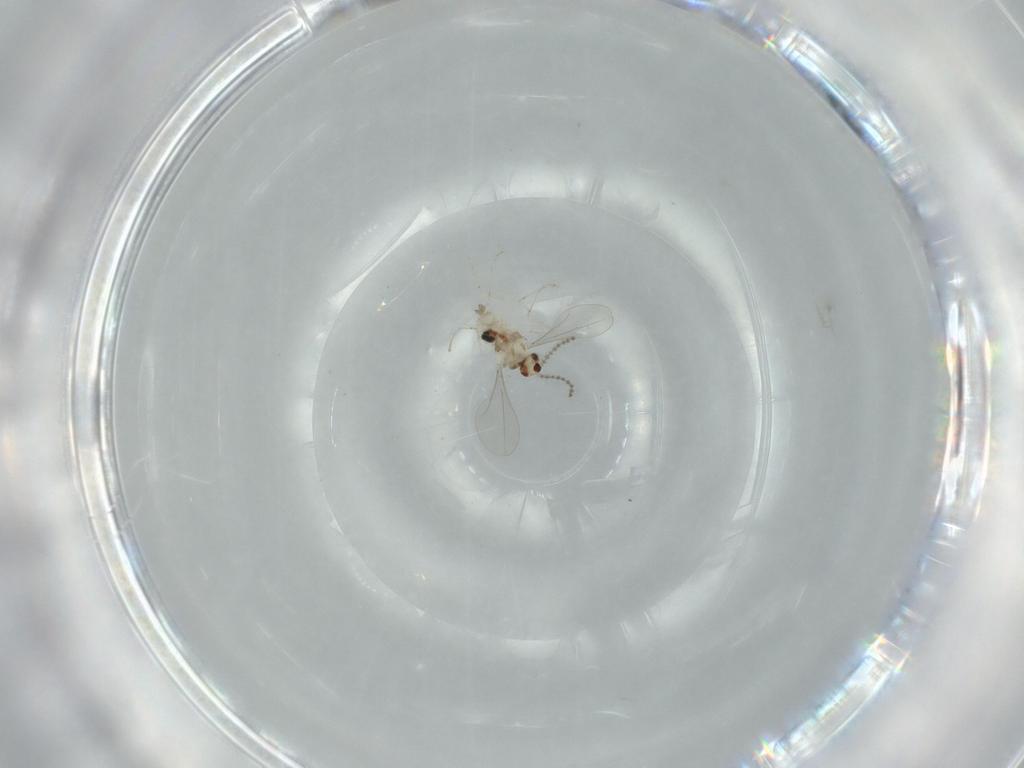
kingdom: Animalia
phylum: Arthropoda
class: Insecta
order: Diptera
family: Cecidomyiidae
